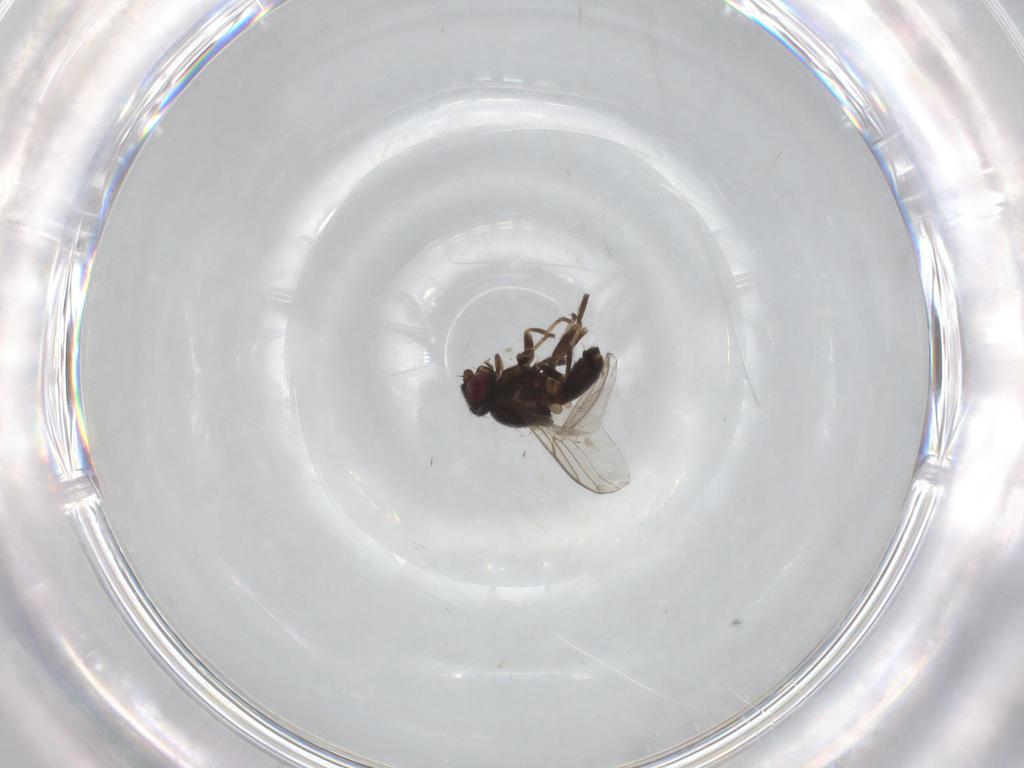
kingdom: Animalia
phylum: Arthropoda
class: Insecta
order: Diptera
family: Chloropidae
